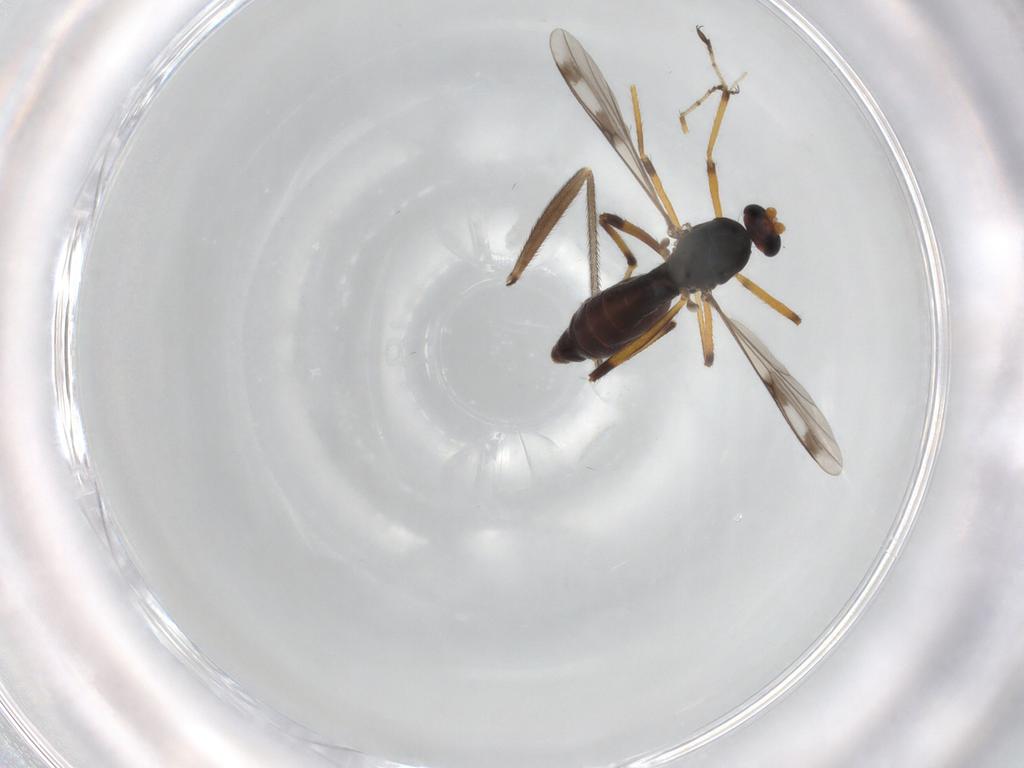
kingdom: Animalia
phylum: Arthropoda
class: Insecta
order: Diptera
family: Ceratopogonidae
